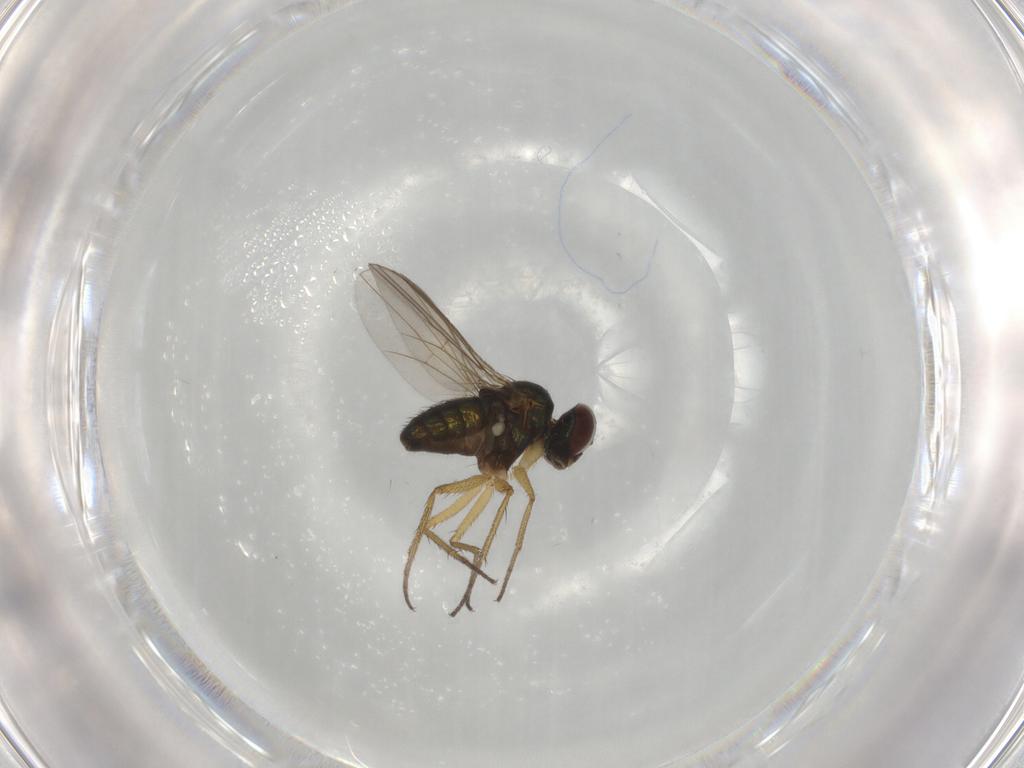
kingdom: Animalia
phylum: Arthropoda
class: Insecta
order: Diptera
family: Dolichopodidae
